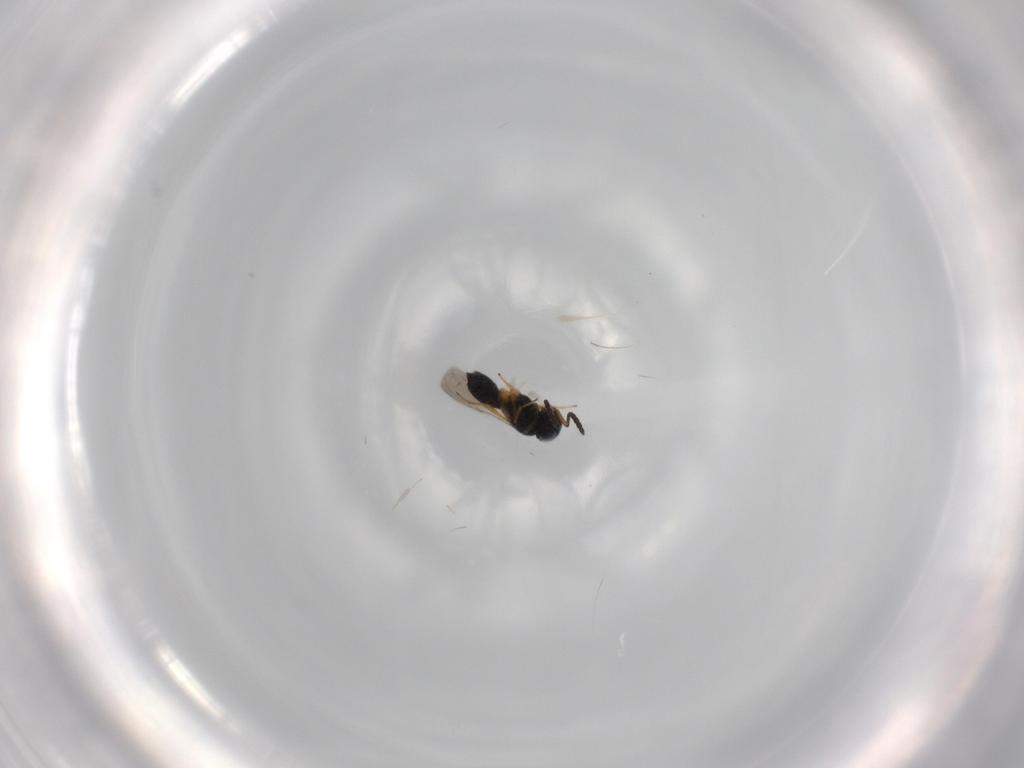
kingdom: Animalia
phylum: Arthropoda
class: Insecta
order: Hymenoptera
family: Scelionidae
